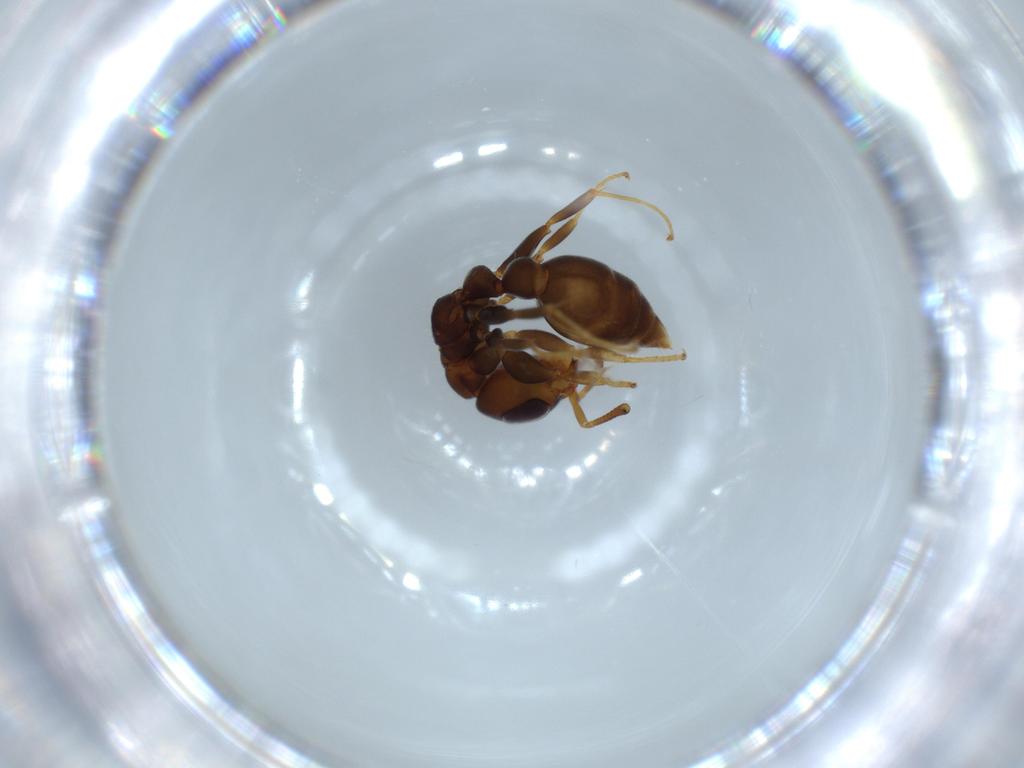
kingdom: Animalia
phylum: Arthropoda
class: Insecta
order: Hymenoptera
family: Formicidae
